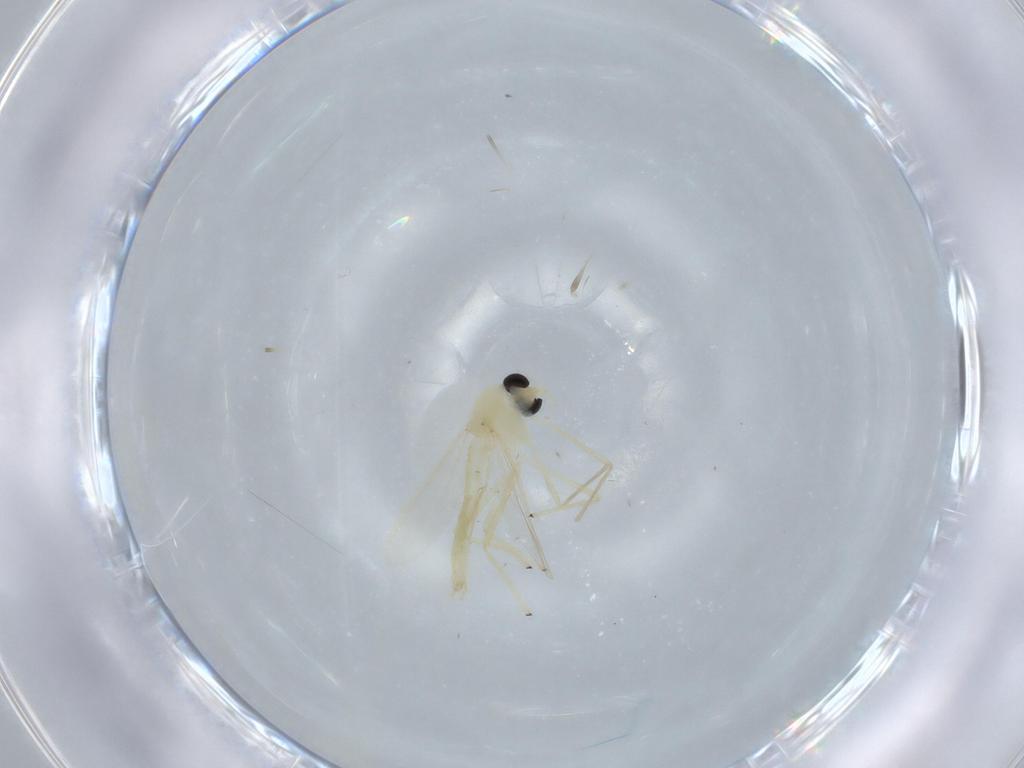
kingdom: Animalia
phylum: Arthropoda
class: Insecta
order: Diptera
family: Chironomidae
